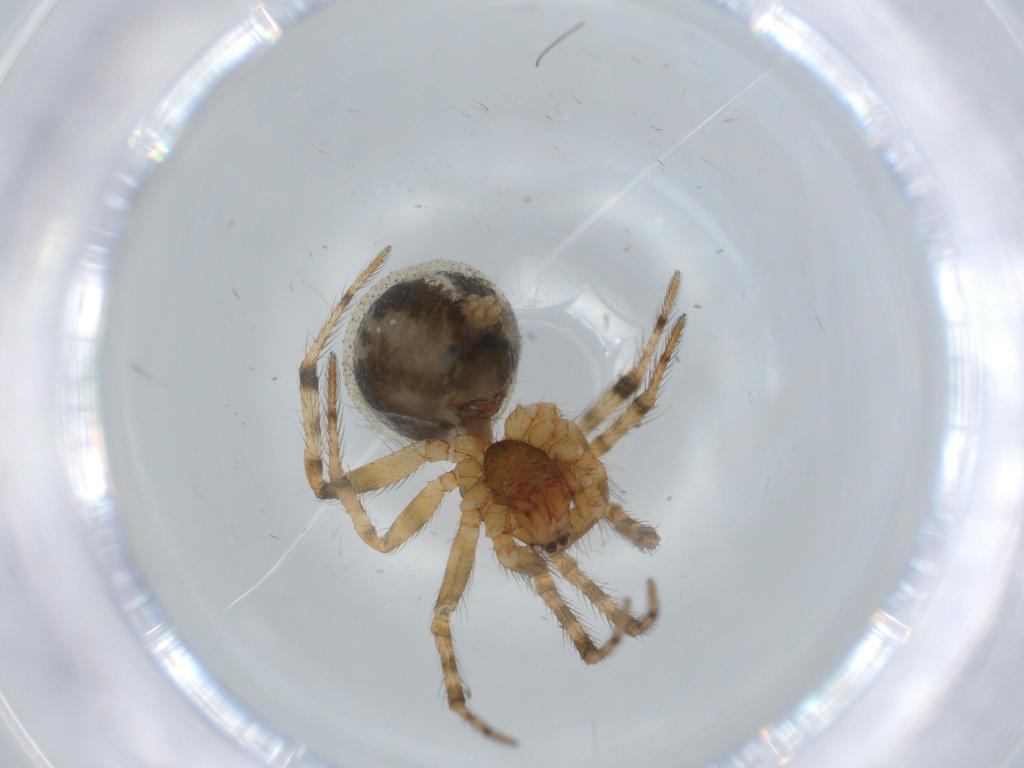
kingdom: Animalia
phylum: Arthropoda
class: Arachnida
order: Araneae
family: Theridiidae
